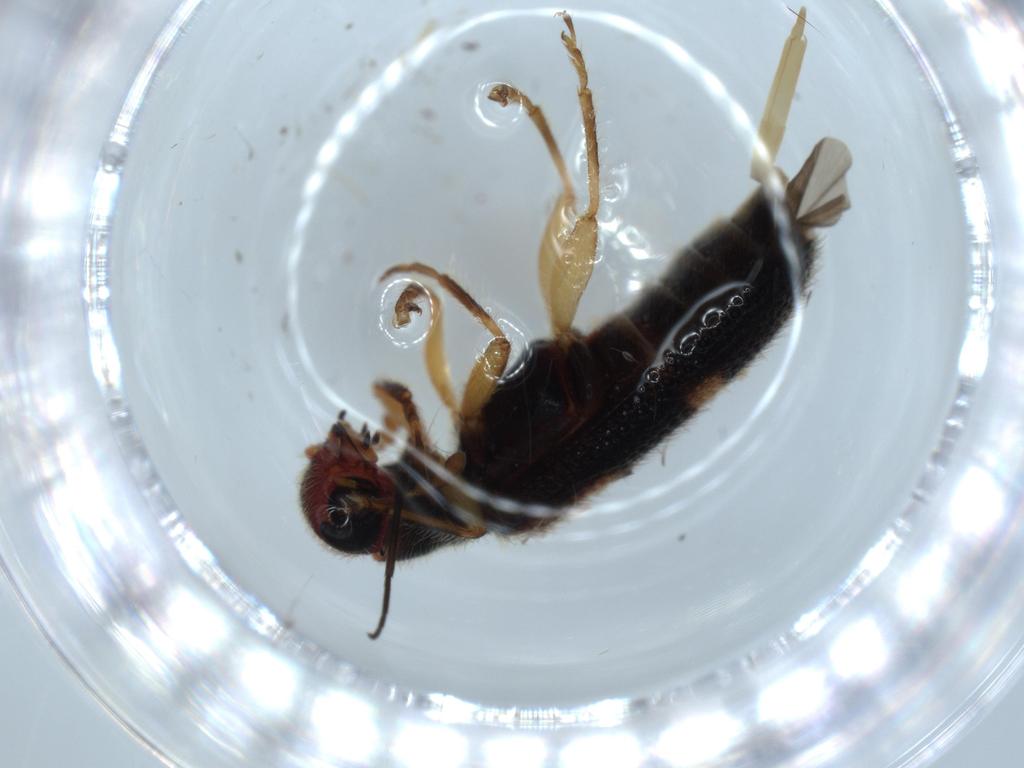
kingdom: Animalia
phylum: Arthropoda
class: Insecta
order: Coleoptera
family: Cleridae
